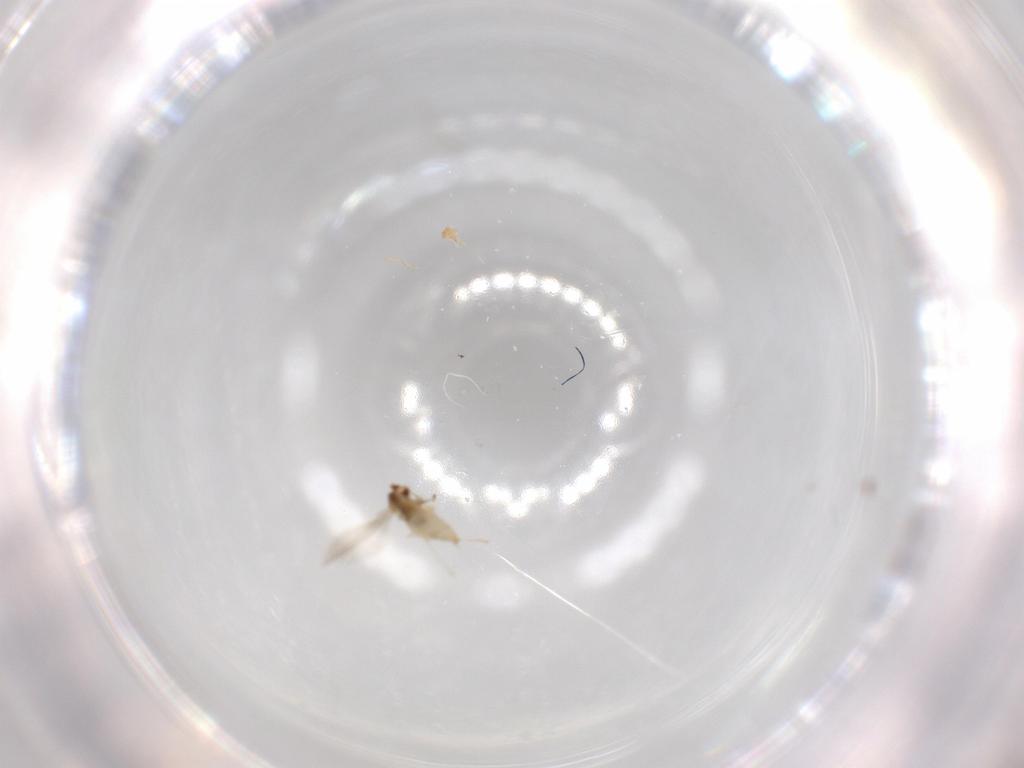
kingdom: Animalia
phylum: Arthropoda
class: Insecta
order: Diptera
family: Cecidomyiidae
